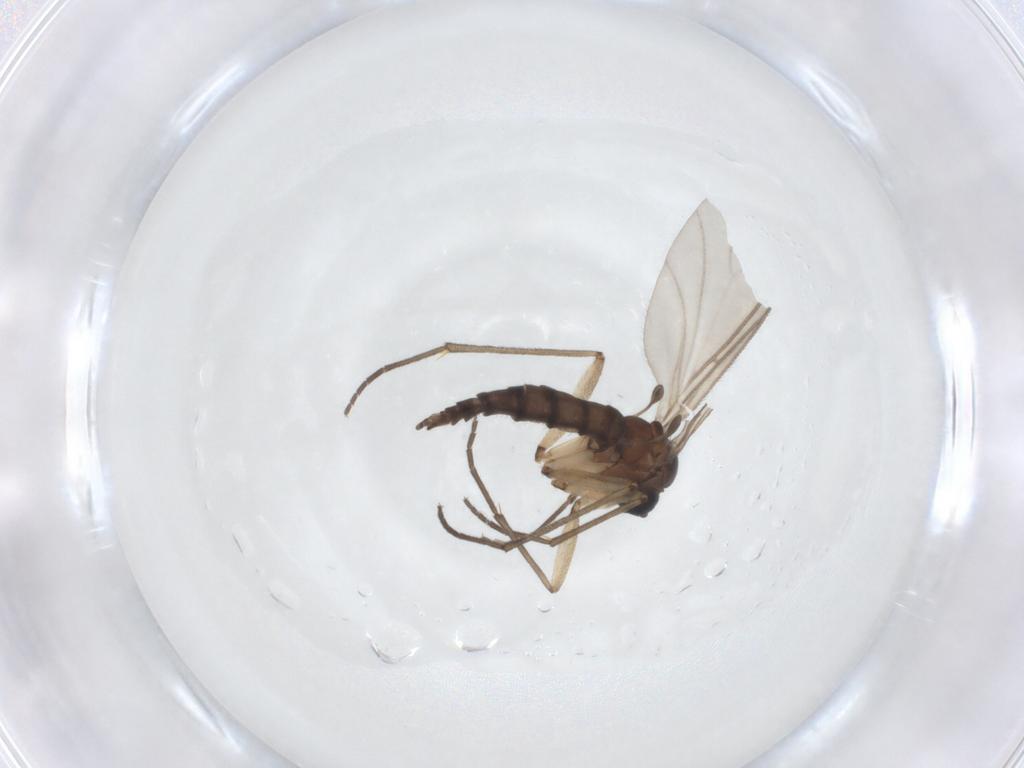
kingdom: Animalia
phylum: Arthropoda
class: Insecta
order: Diptera
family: Sciaridae
